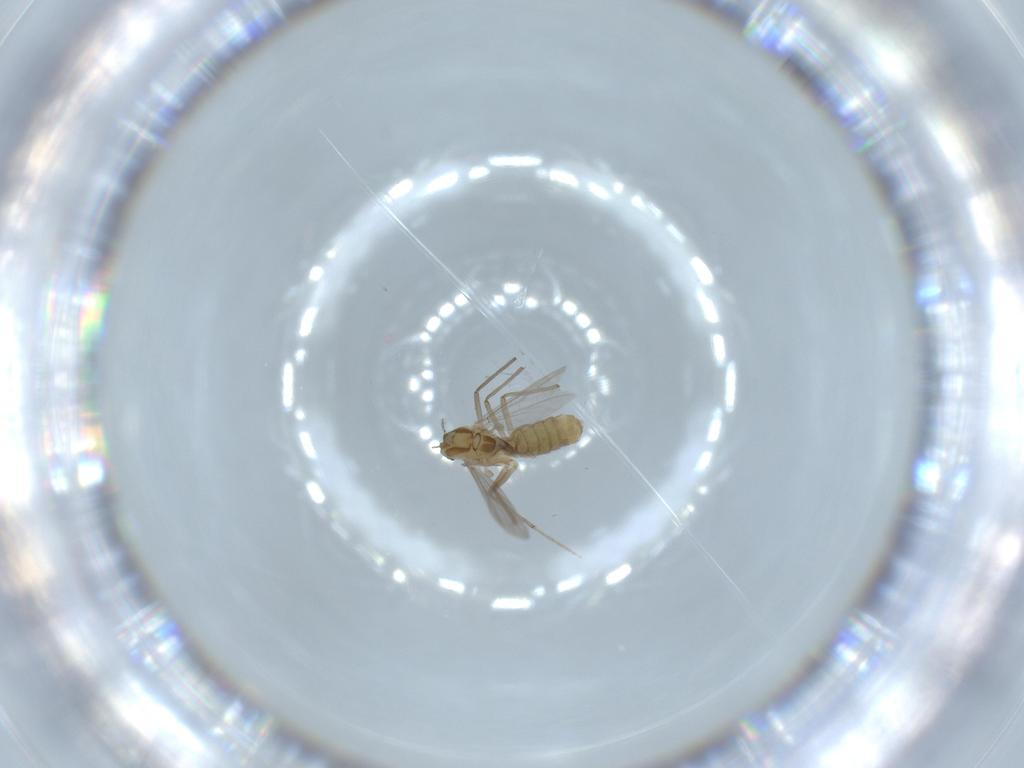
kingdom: Animalia
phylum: Arthropoda
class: Insecta
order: Diptera
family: Chironomidae
